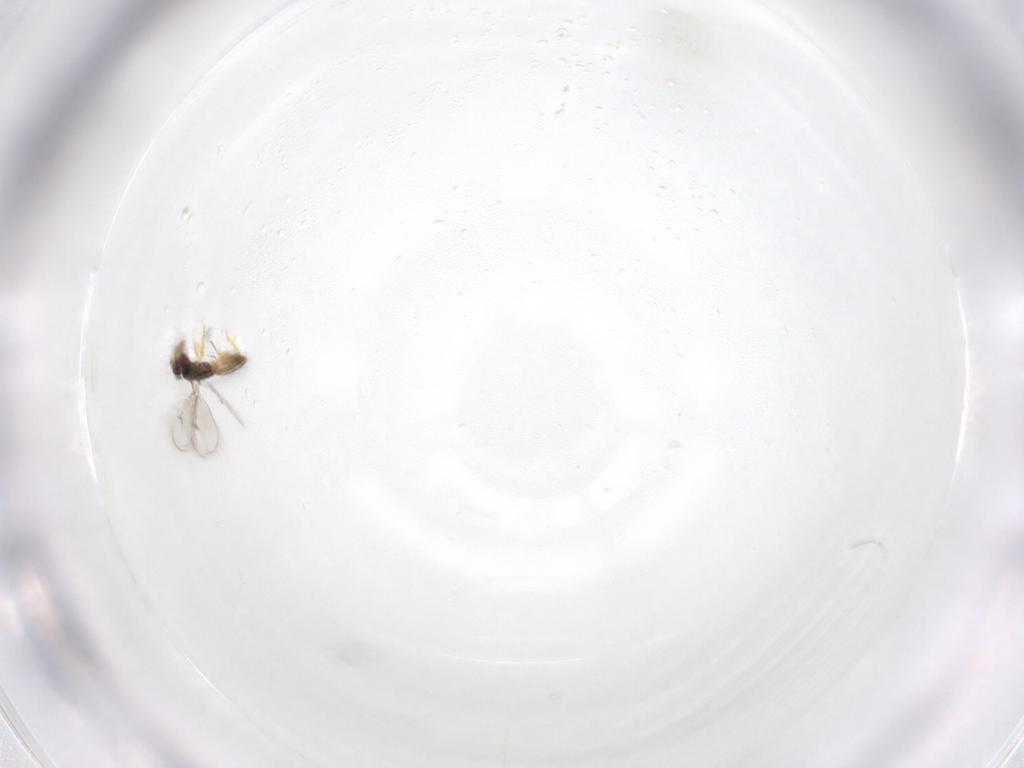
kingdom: Animalia
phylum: Arthropoda
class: Insecta
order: Hymenoptera
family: Braconidae
